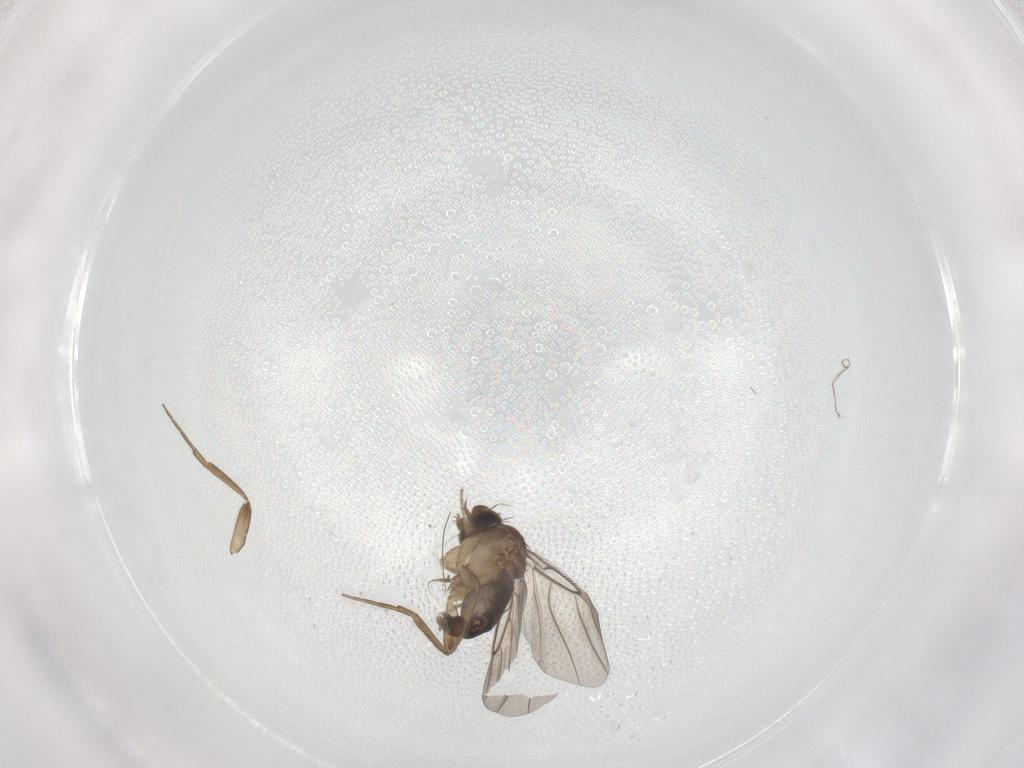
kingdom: Animalia
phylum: Arthropoda
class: Insecta
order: Diptera
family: Phoridae
